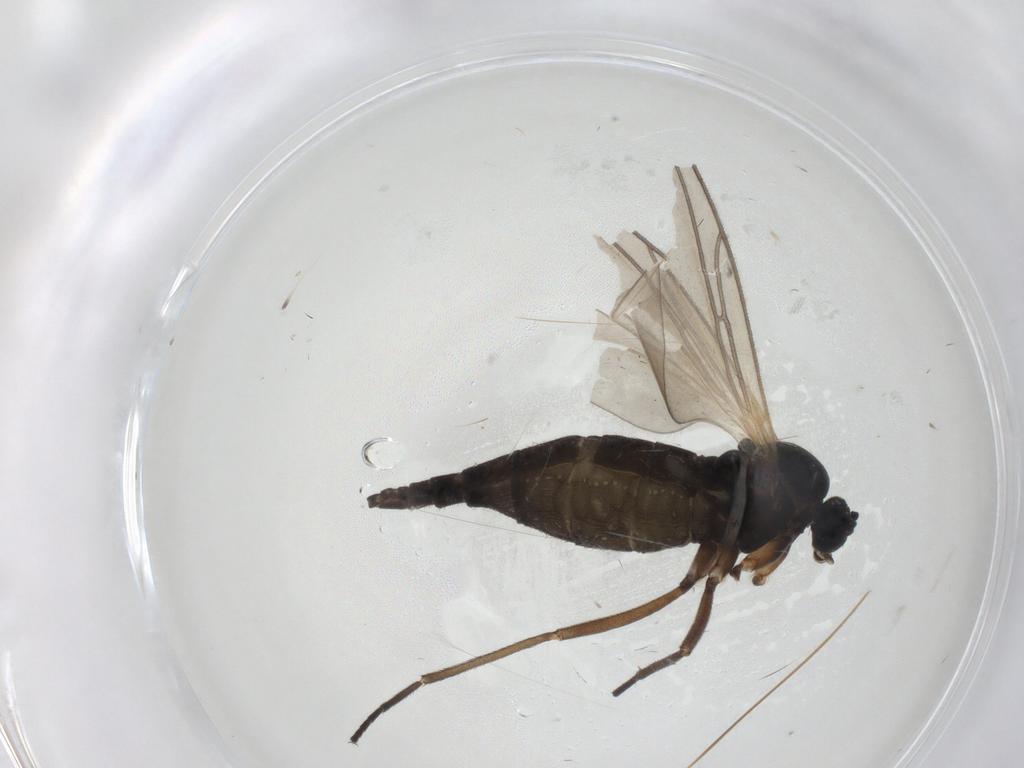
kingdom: Animalia
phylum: Arthropoda
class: Insecta
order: Diptera
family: Sciaridae
